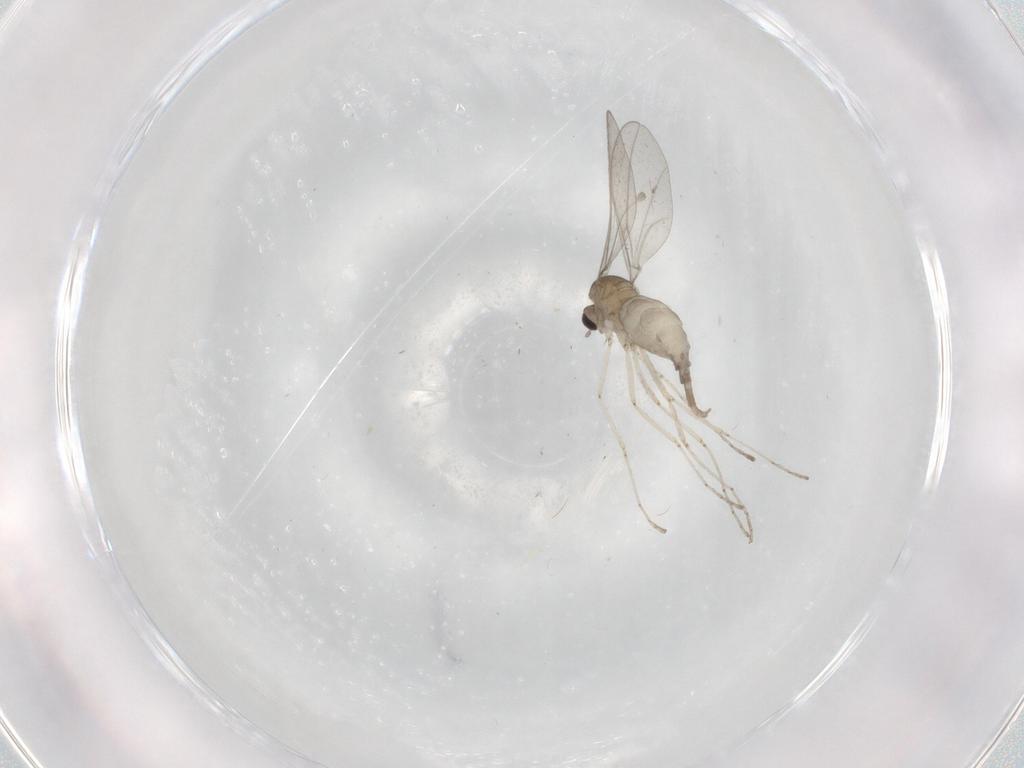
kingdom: Animalia
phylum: Arthropoda
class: Insecta
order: Diptera
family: Cecidomyiidae
